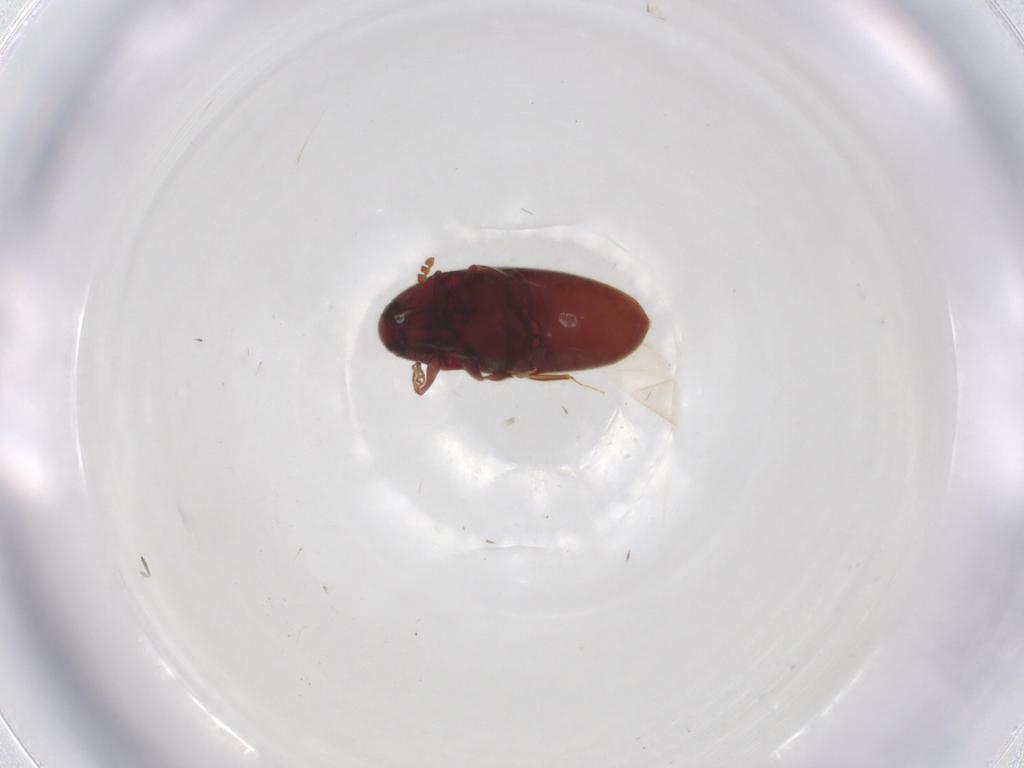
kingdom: Animalia
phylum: Arthropoda
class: Insecta
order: Coleoptera
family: Throscidae
